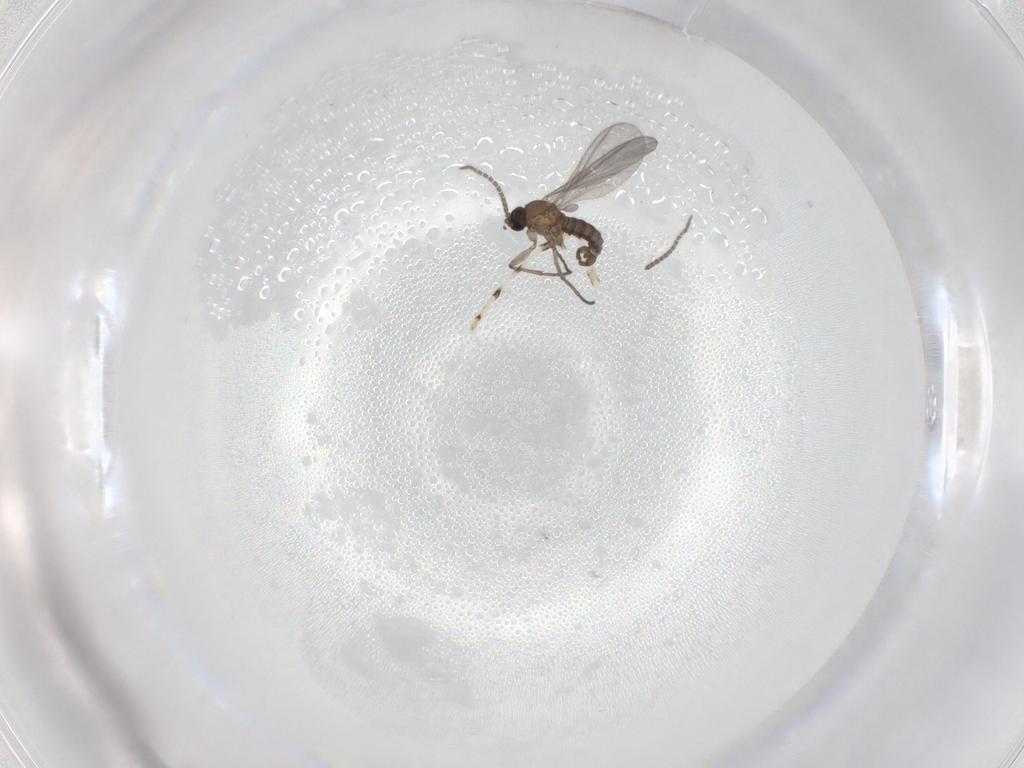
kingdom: Animalia
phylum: Arthropoda
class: Insecta
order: Diptera
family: Sciaridae
